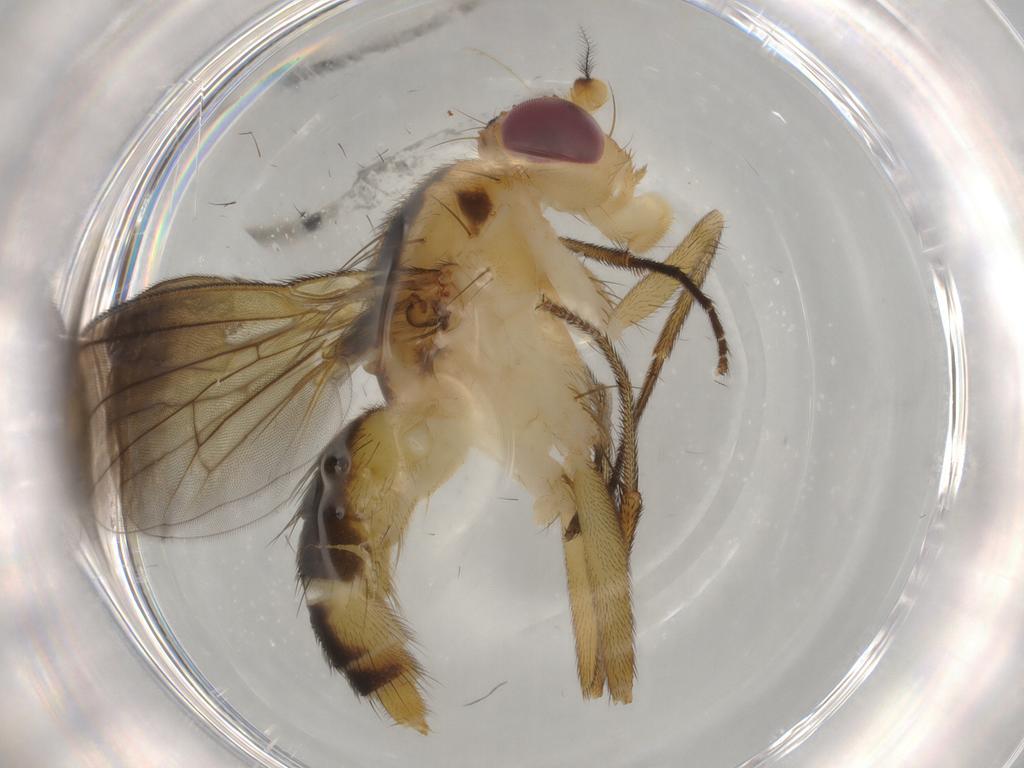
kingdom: Animalia
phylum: Arthropoda
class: Insecta
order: Diptera
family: Clusiidae
